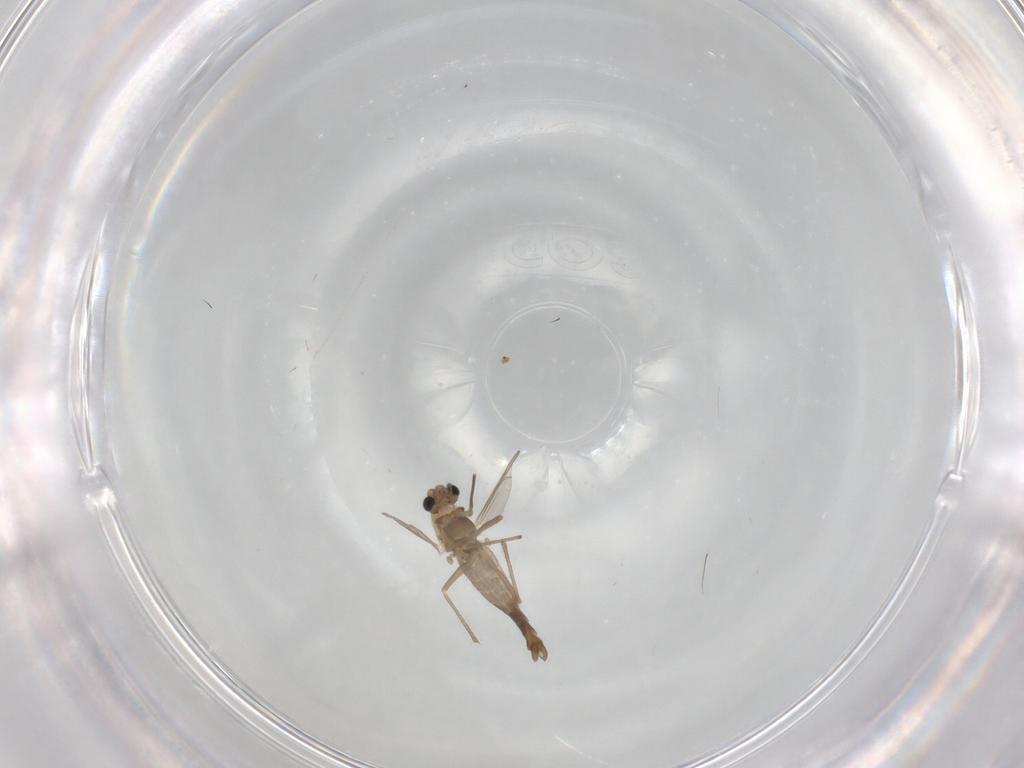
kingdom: Animalia
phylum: Arthropoda
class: Insecta
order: Diptera
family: Chironomidae
